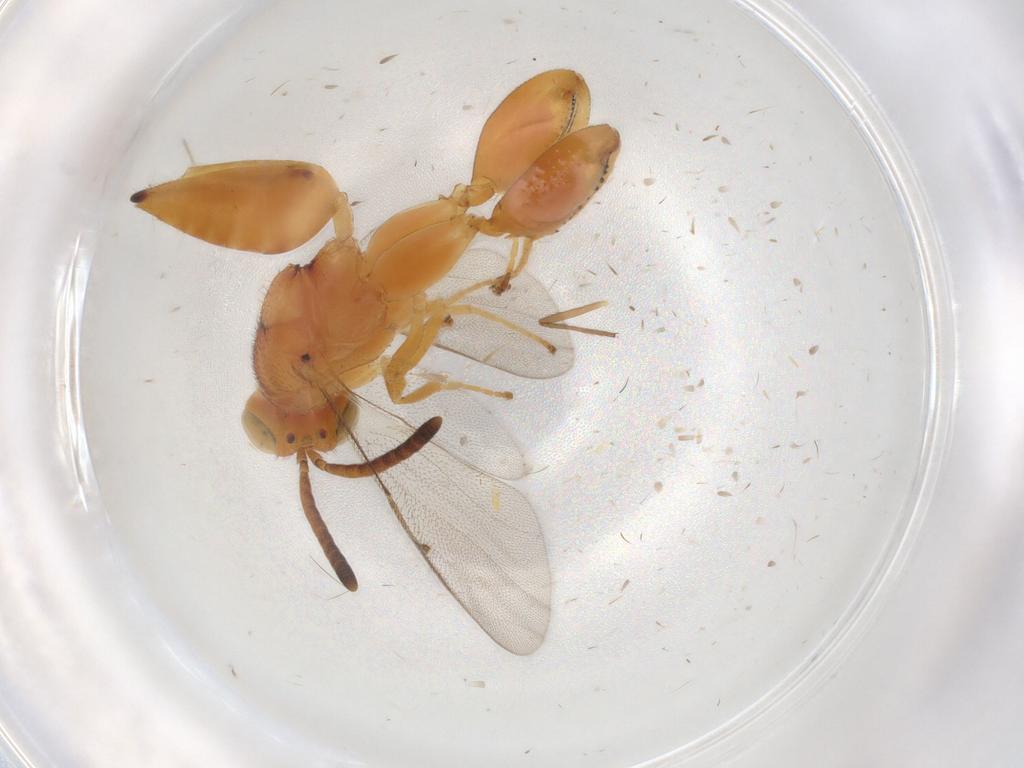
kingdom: Animalia
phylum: Arthropoda
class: Insecta
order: Hymenoptera
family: Chalcididae
